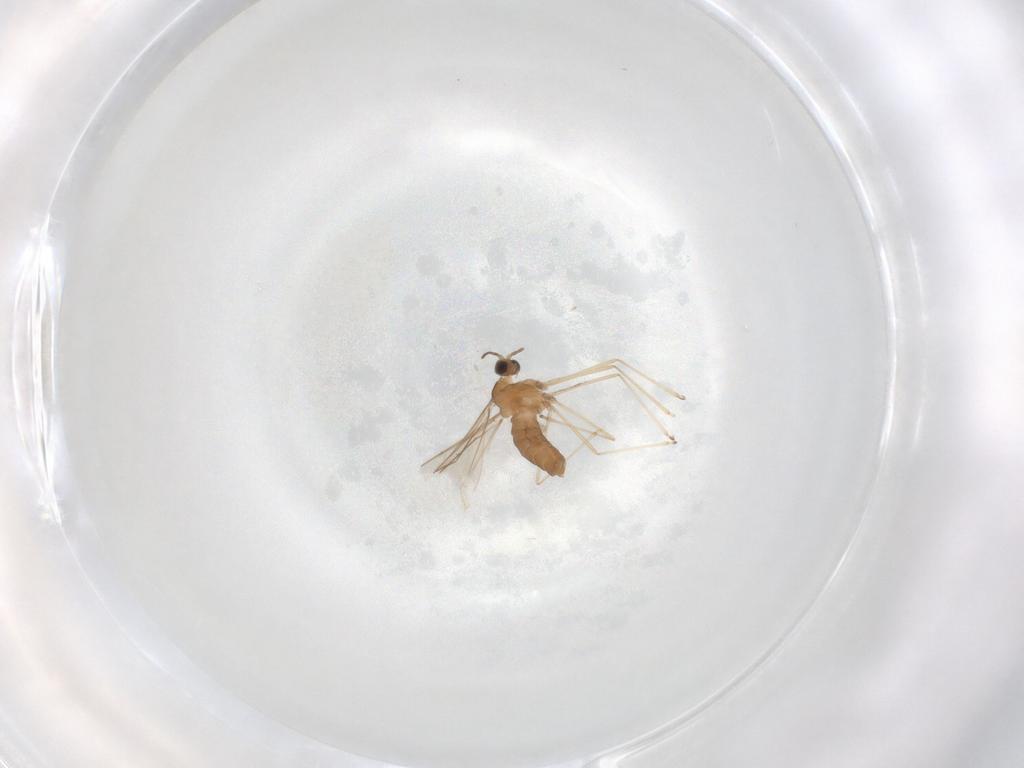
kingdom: Animalia
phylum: Arthropoda
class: Insecta
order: Diptera
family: Cecidomyiidae
